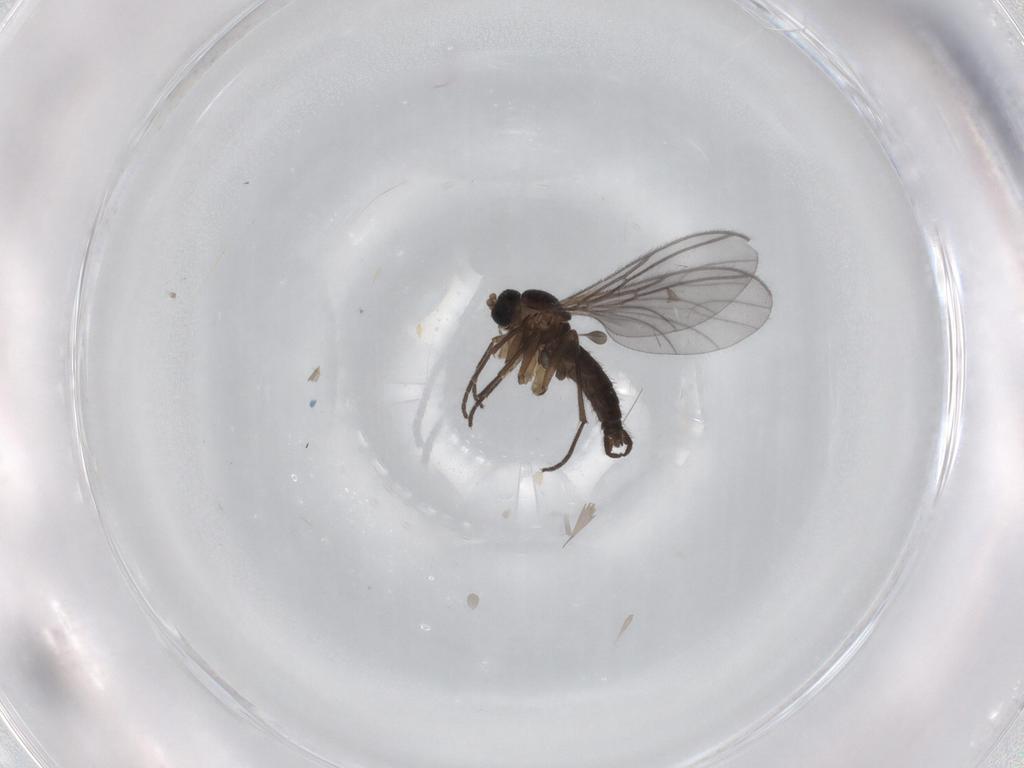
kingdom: Animalia
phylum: Arthropoda
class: Insecta
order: Diptera
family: Sciaridae
